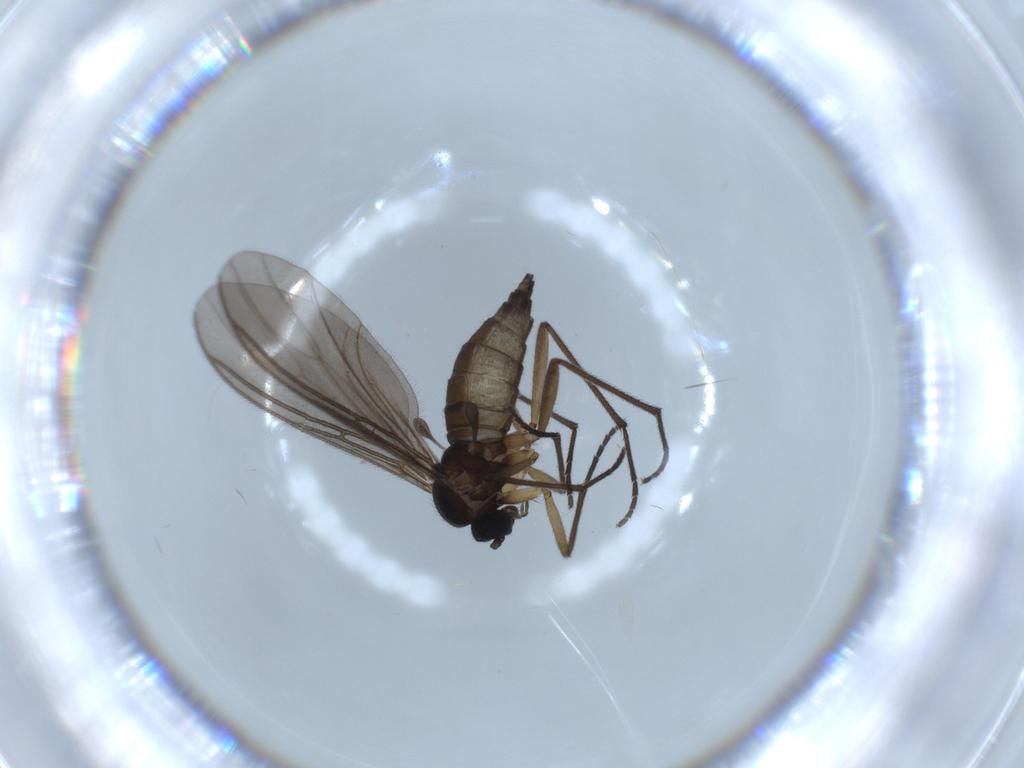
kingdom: Animalia
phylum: Arthropoda
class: Insecta
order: Diptera
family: Sciaridae
